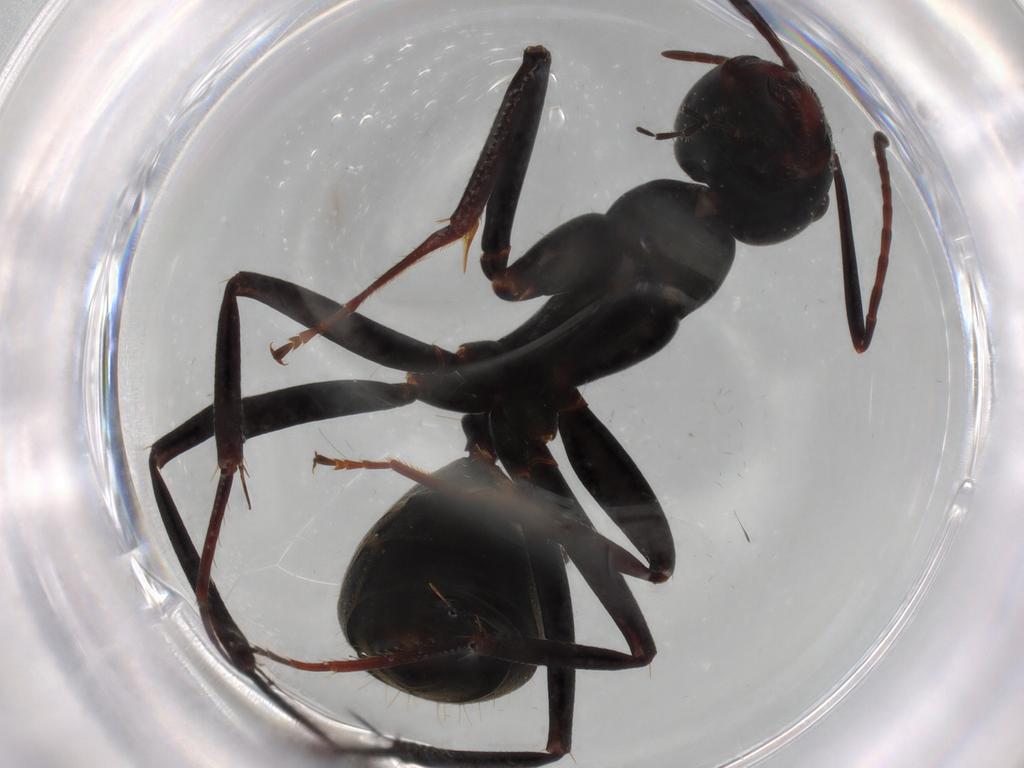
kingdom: Animalia
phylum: Arthropoda
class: Insecta
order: Hymenoptera
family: Formicidae
